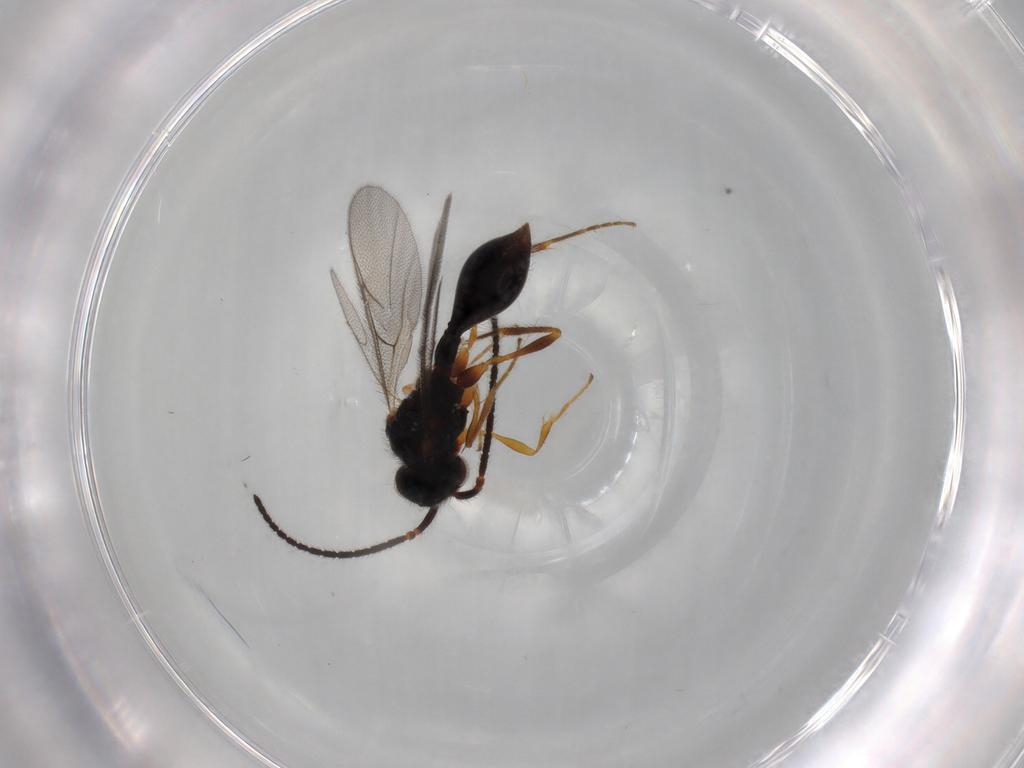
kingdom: Animalia
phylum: Arthropoda
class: Insecta
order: Hymenoptera
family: Diapriidae
